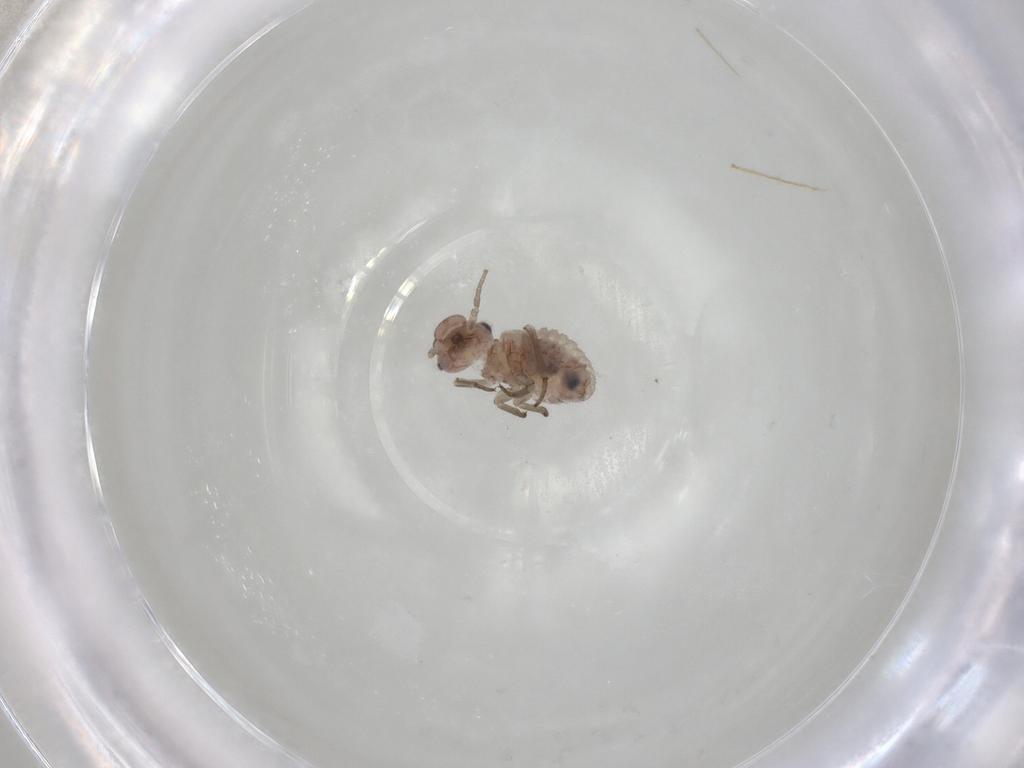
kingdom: Animalia
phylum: Arthropoda
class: Insecta
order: Psocodea
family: Psocidae
